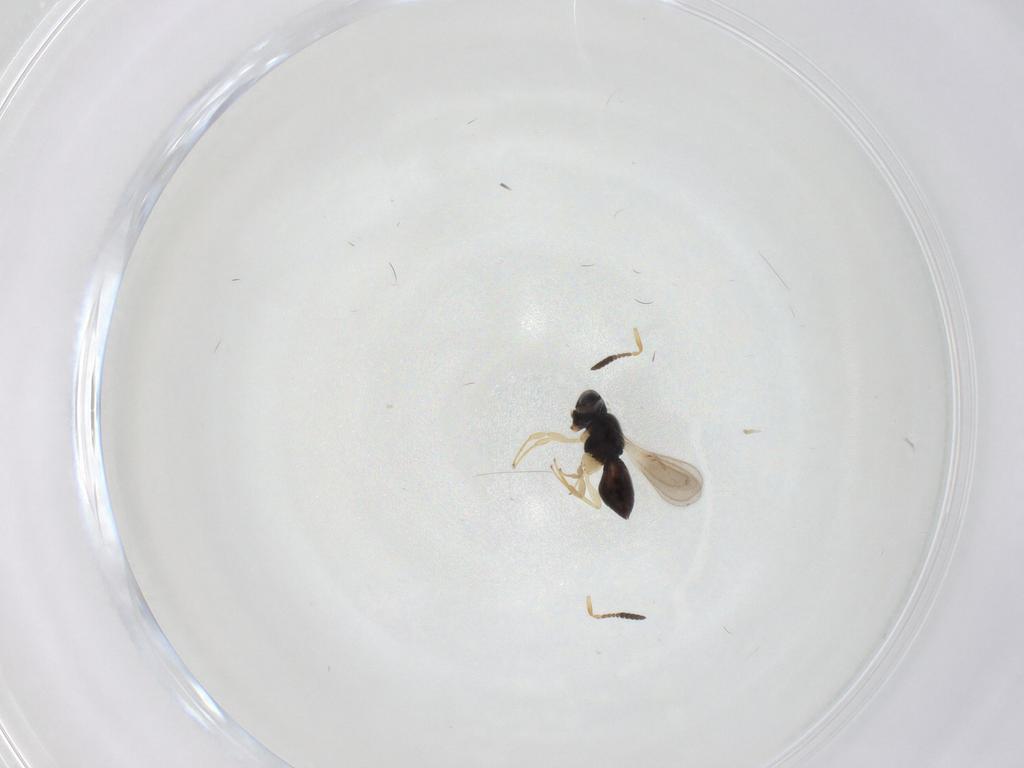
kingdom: Animalia
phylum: Arthropoda
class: Insecta
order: Hymenoptera
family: Scelionidae
